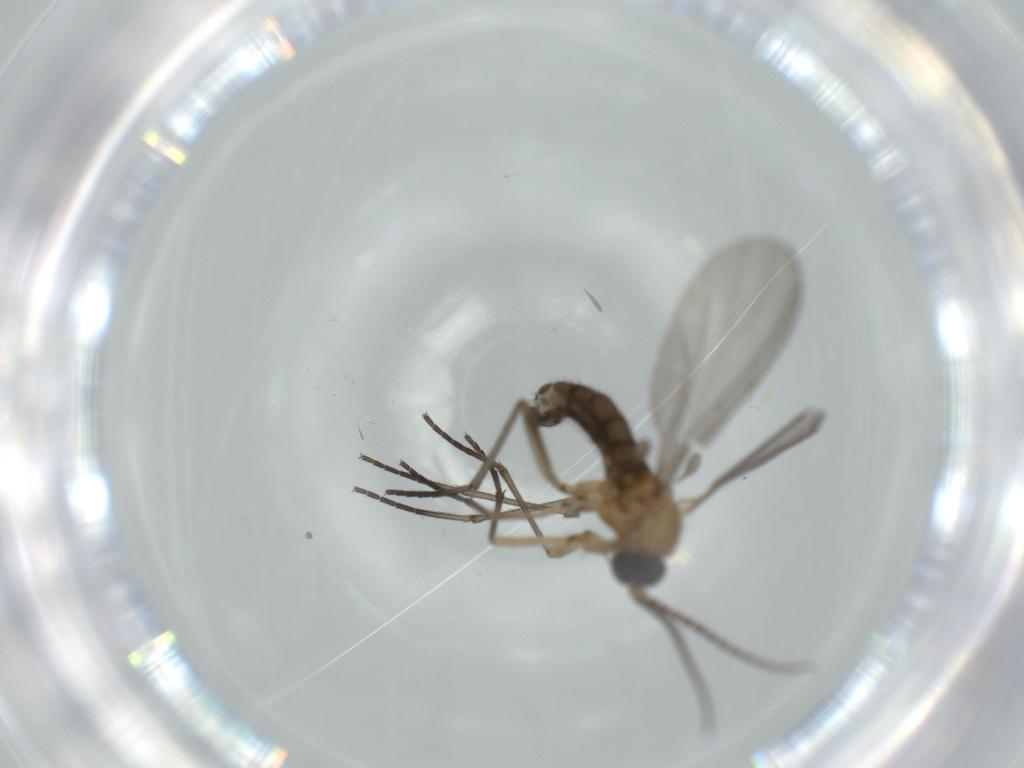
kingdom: Animalia
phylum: Arthropoda
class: Insecta
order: Diptera
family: Sciaridae
